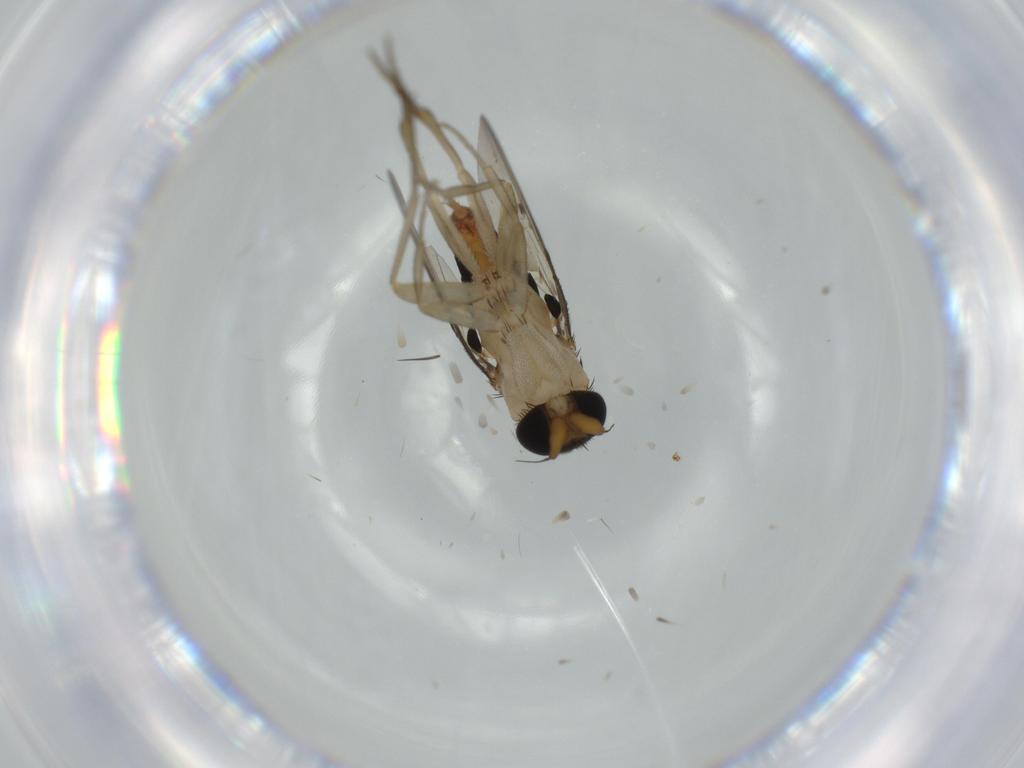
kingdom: Animalia
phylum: Arthropoda
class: Insecta
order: Diptera
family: Phoridae
